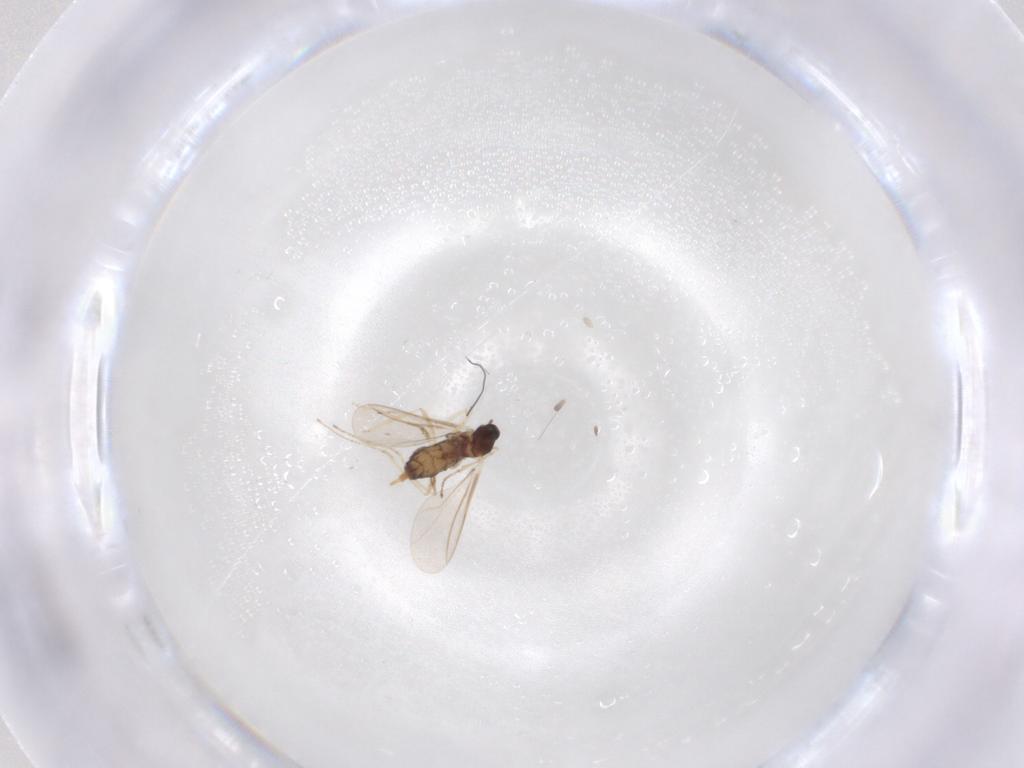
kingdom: Animalia
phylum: Arthropoda
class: Insecta
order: Diptera
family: Cecidomyiidae
